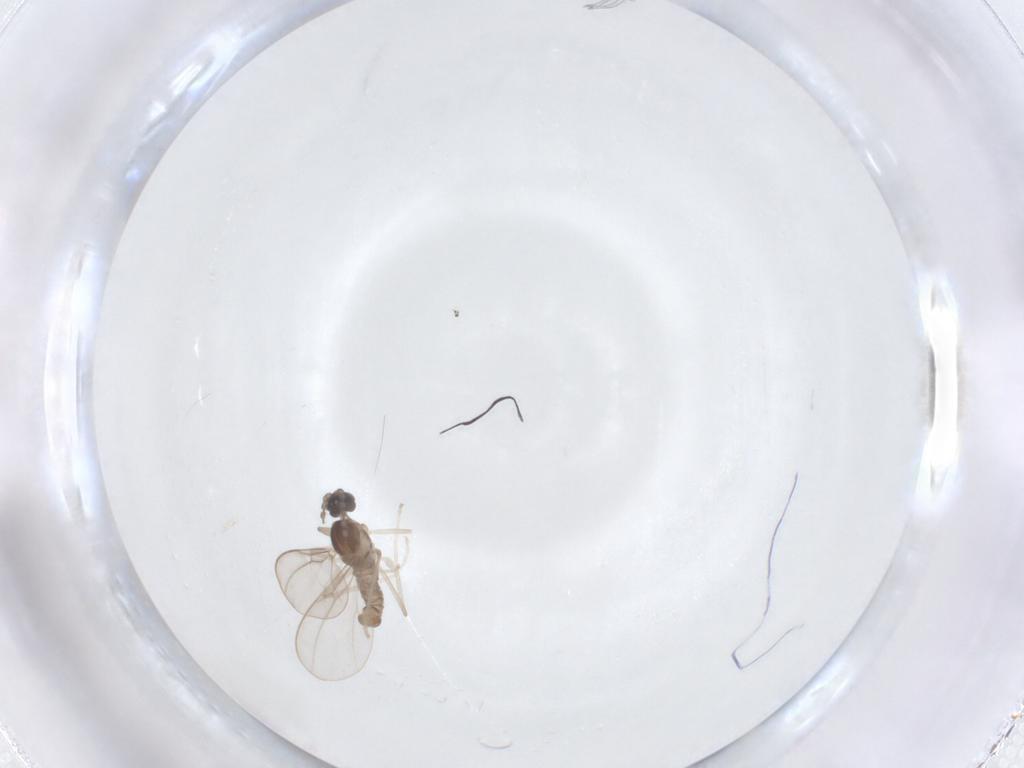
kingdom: Animalia
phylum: Arthropoda
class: Insecta
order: Diptera
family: Cecidomyiidae
